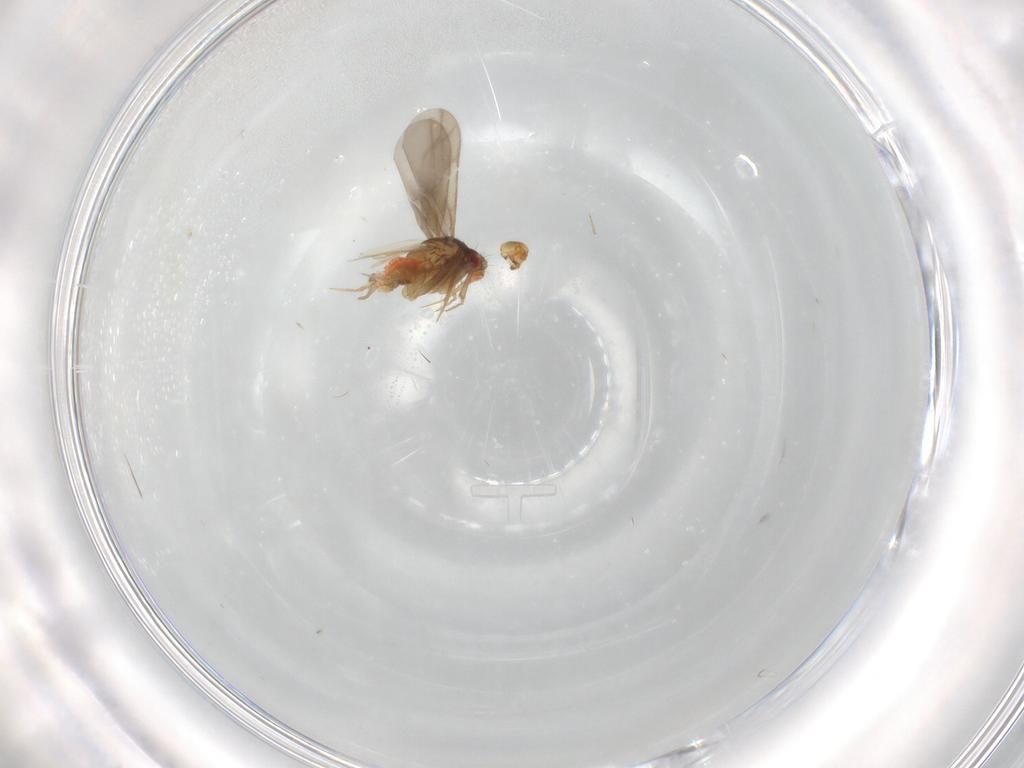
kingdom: Animalia
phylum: Arthropoda
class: Insecta
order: Hemiptera
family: Ceratocombidae
